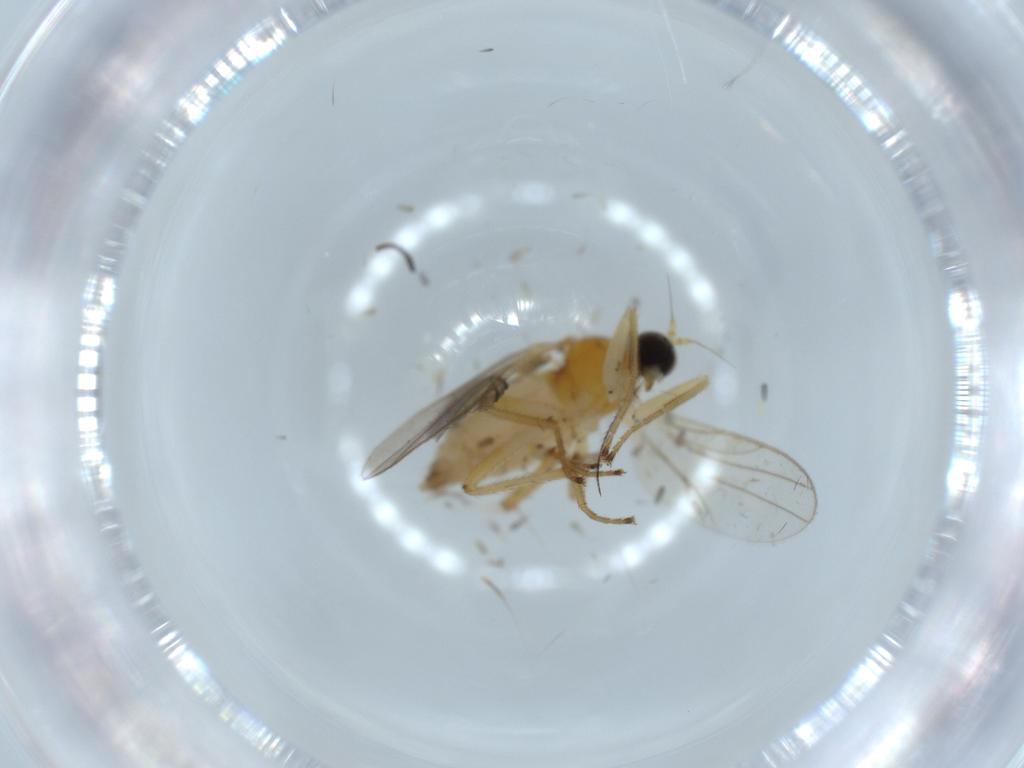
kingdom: Animalia
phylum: Arthropoda
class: Insecta
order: Diptera
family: Hybotidae
